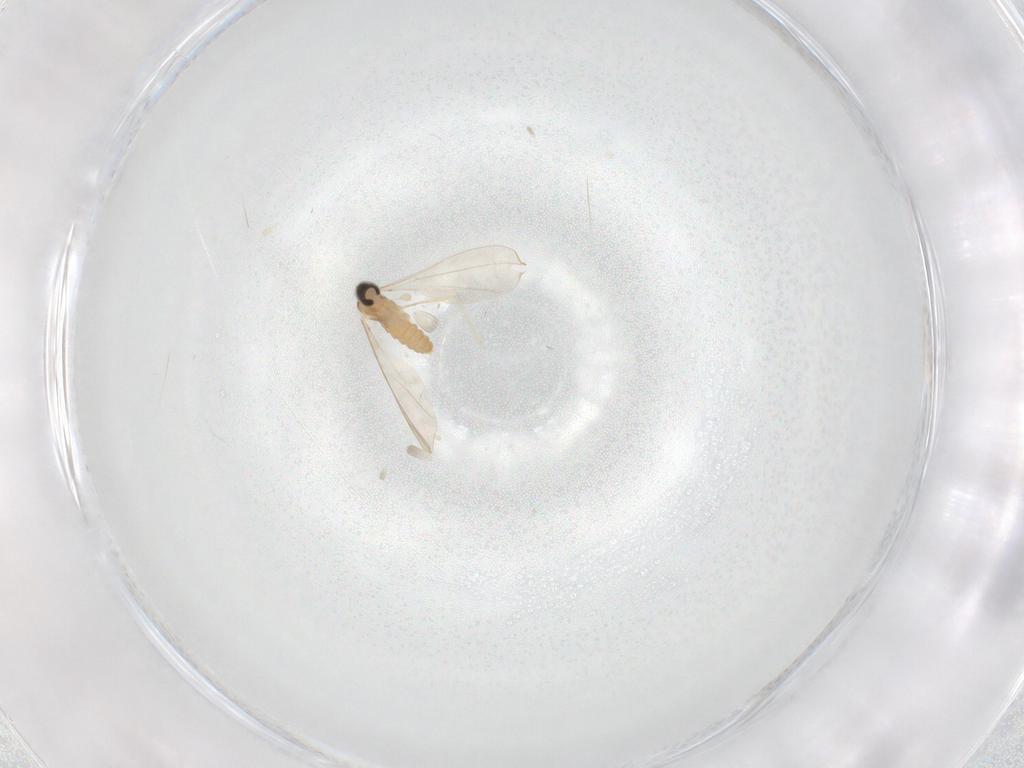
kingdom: Animalia
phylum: Arthropoda
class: Insecta
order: Diptera
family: Cecidomyiidae
